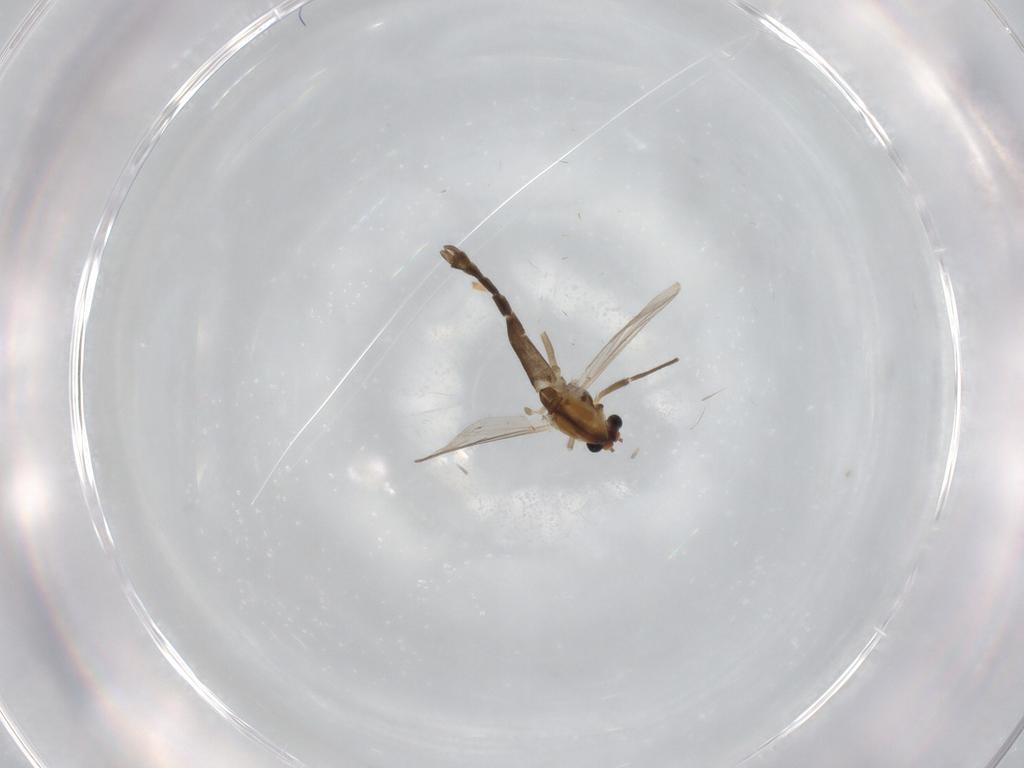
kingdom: Animalia
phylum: Arthropoda
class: Insecta
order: Diptera
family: Chironomidae
